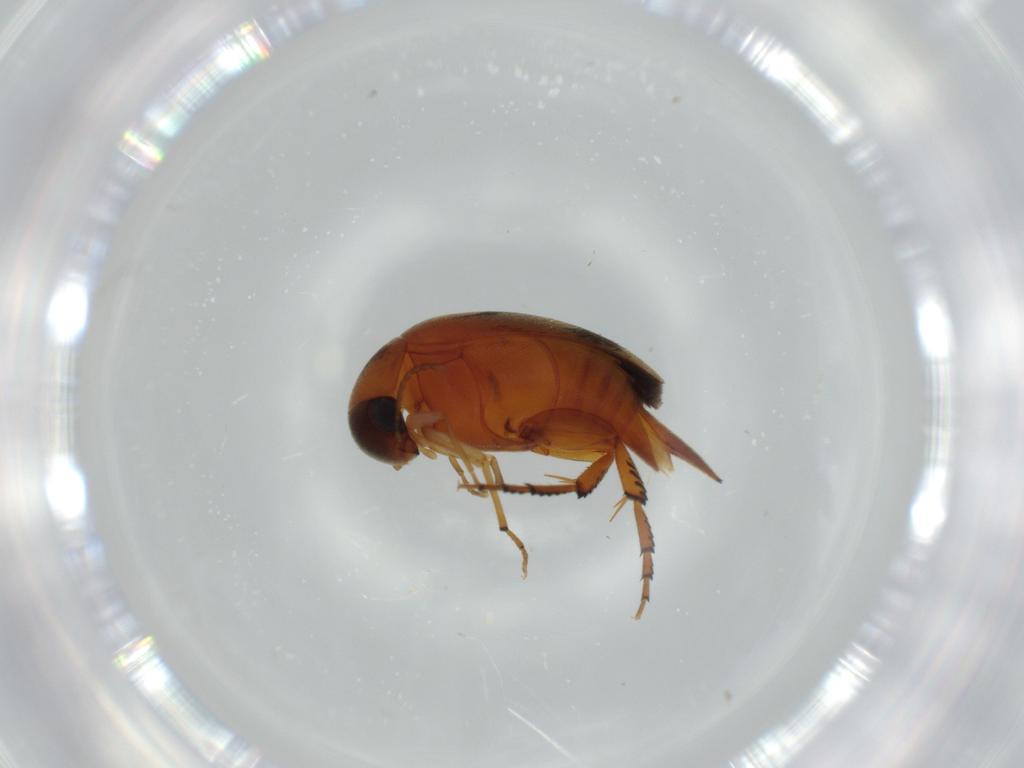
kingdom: Animalia
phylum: Arthropoda
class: Insecta
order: Coleoptera
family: Mordellidae
